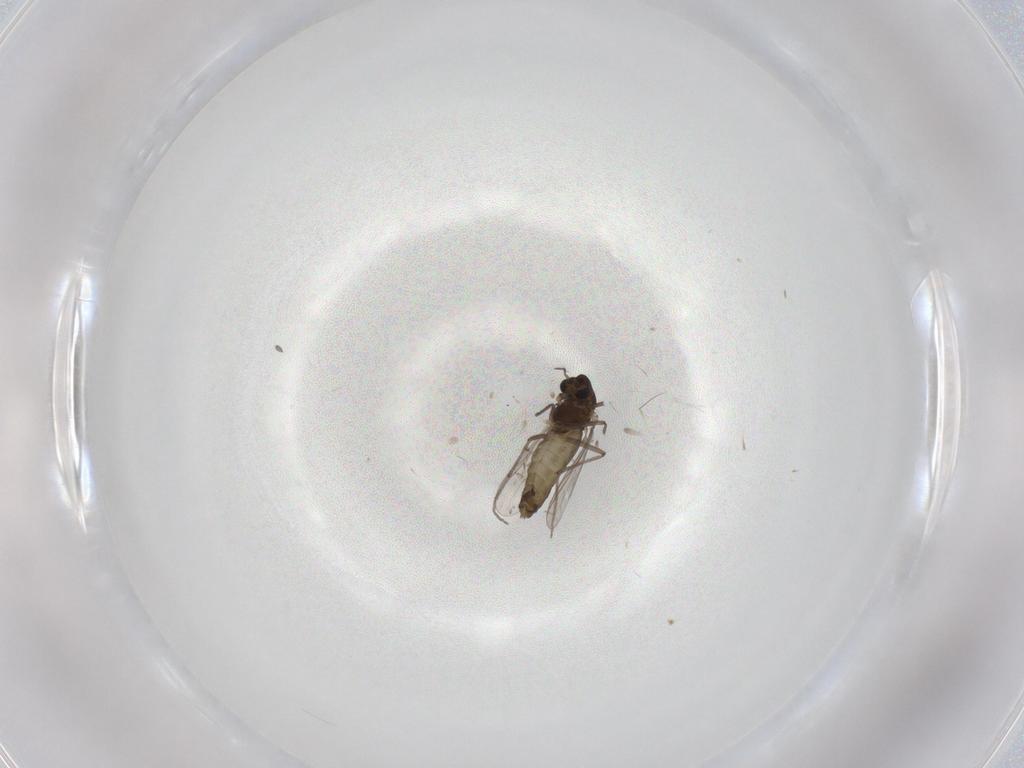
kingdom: Animalia
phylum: Arthropoda
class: Insecta
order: Diptera
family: Chironomidae
